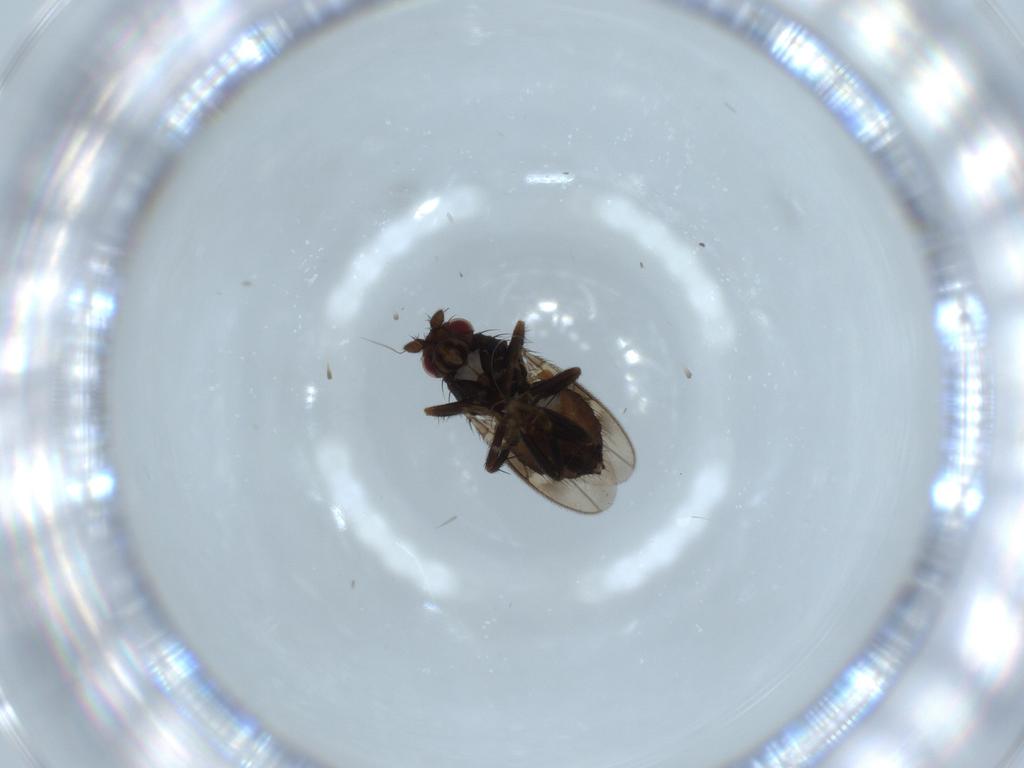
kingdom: Animalia
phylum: Arthropoda
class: Insecta
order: Diptera
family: Sphaeroceridae
